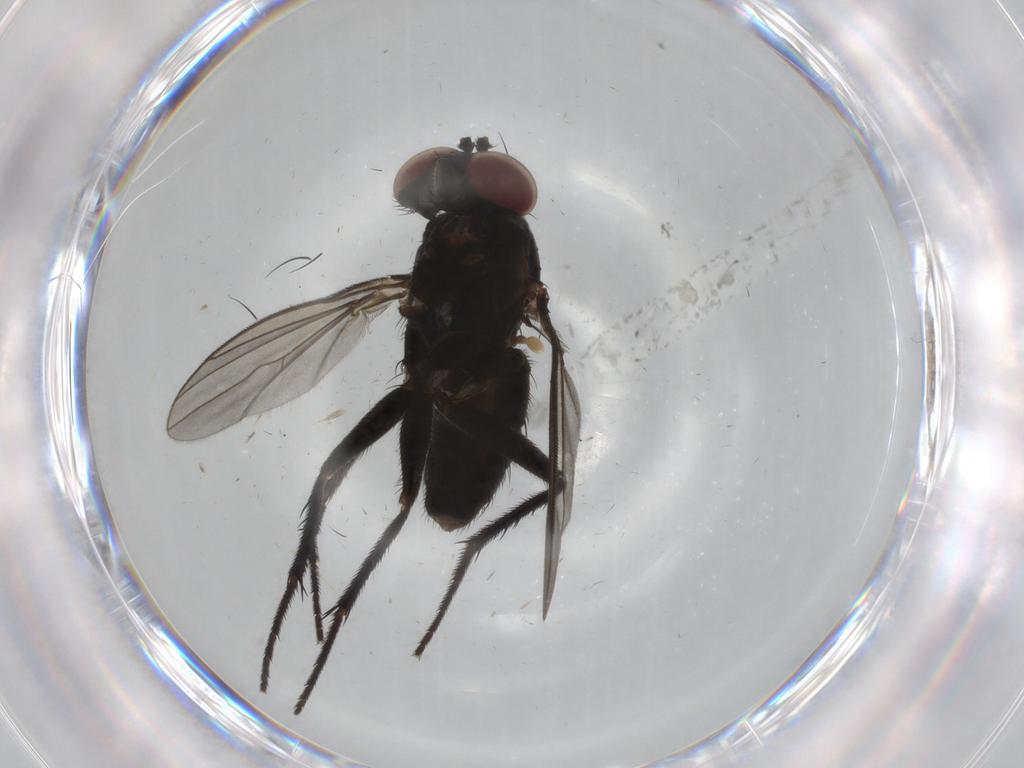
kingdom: Animalia
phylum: Arthropoda
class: Insecta
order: Diptera
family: Dolichopodidae
